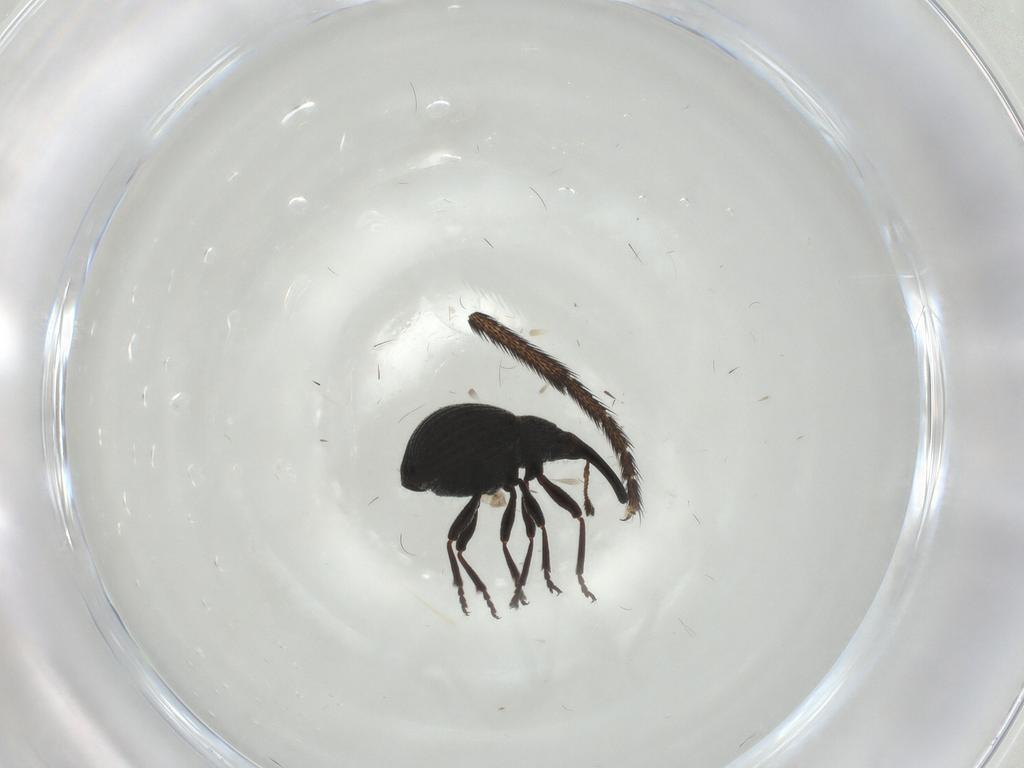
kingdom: Animalia
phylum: Arthropoda
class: Insecta
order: Coleoptera
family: Brentidae
